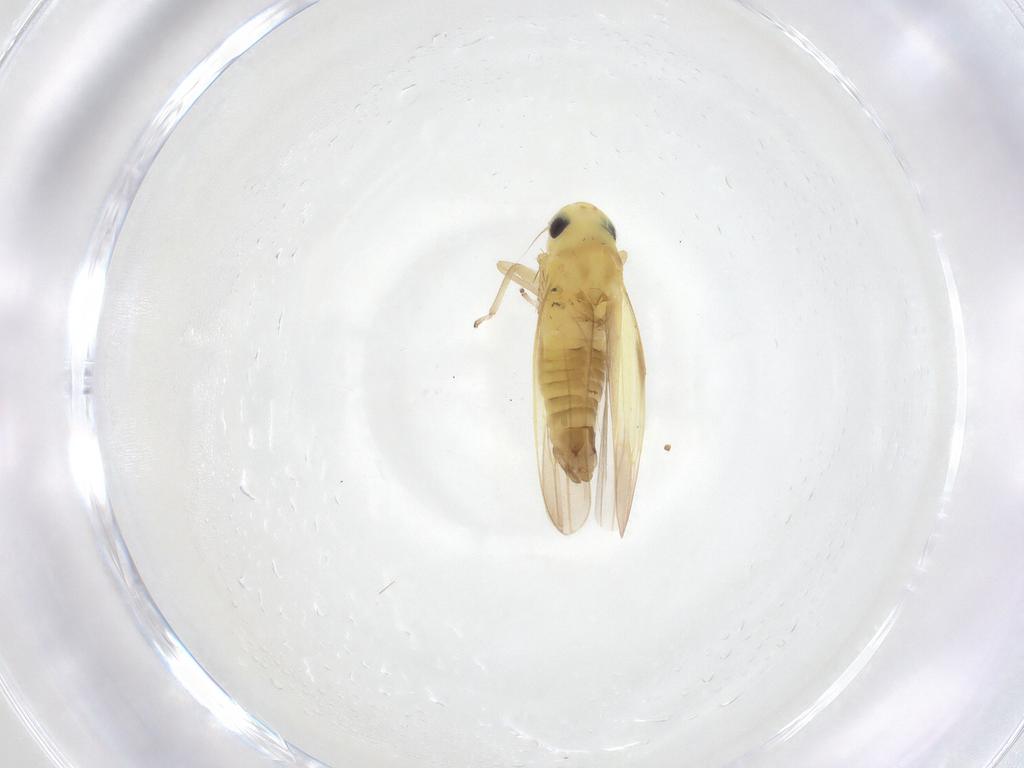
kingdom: Animalia
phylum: Arthropoda
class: Insecta
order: Hemiptera
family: Cicadellidae
